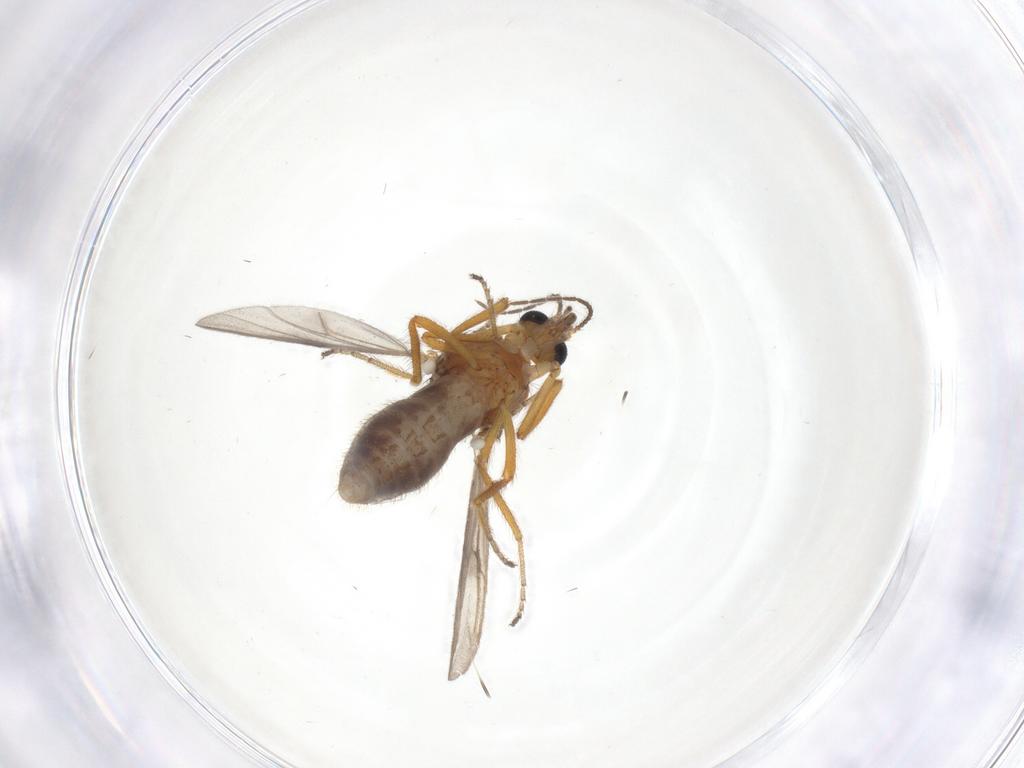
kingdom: Animalia
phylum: Arthropoda
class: Insecta
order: Diptera
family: Ceratopogonidae
